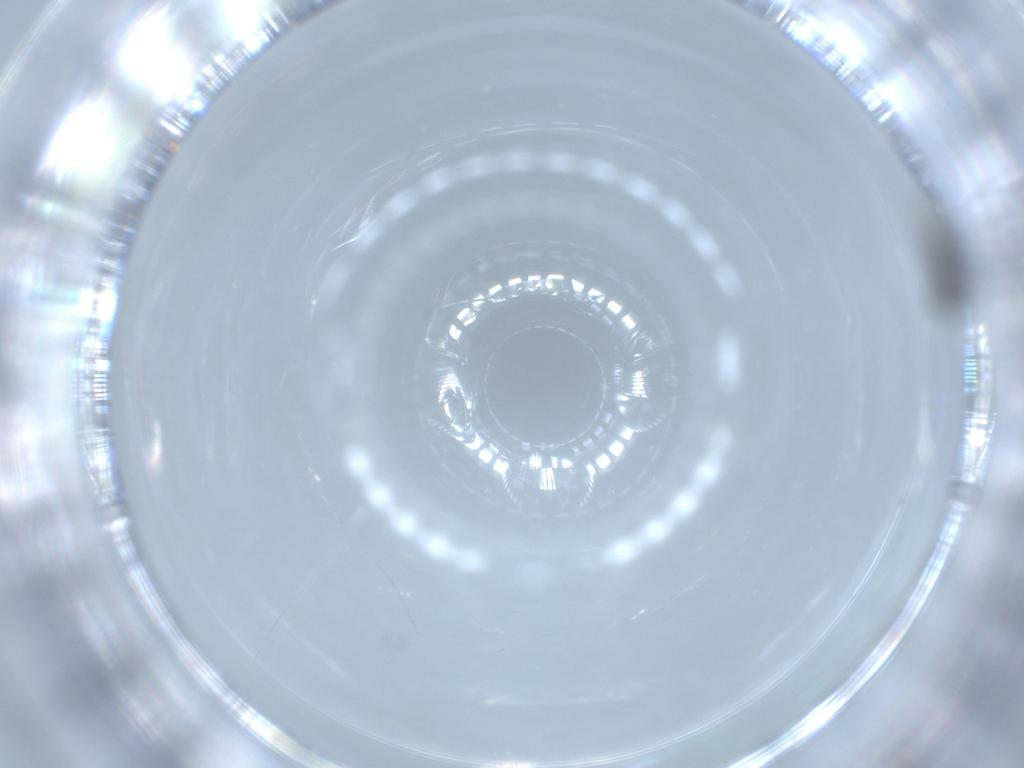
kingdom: Animalia
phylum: Arthropoda
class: Insecta
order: Diptera
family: Phoridae
